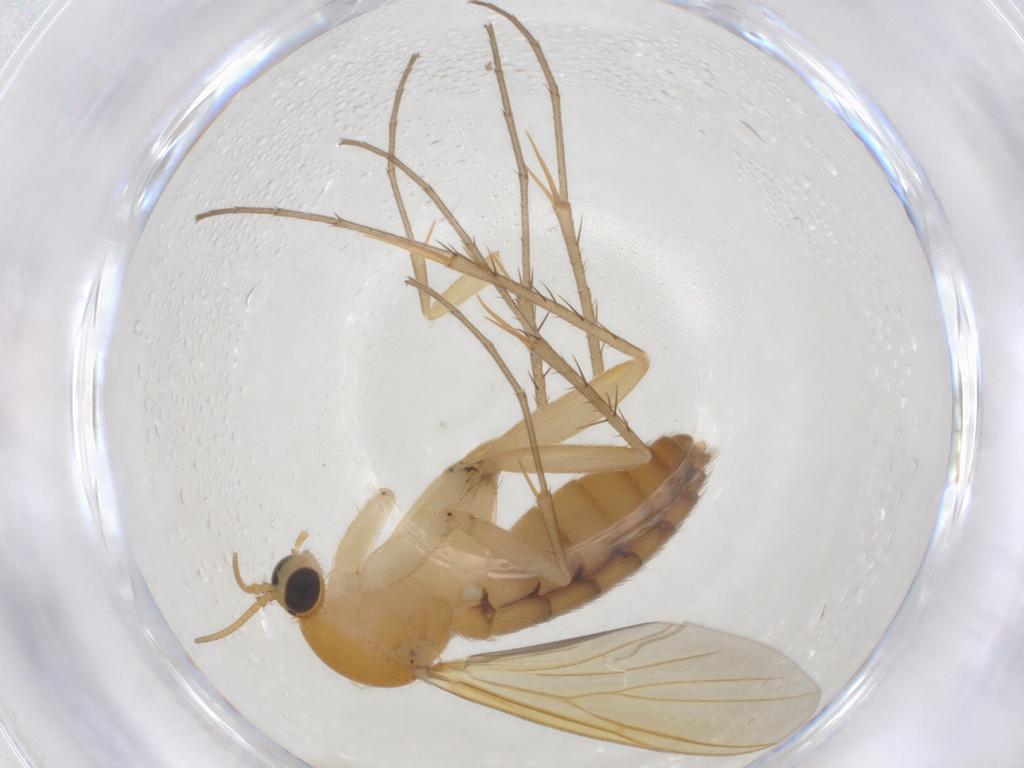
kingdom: Animalia
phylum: Arthropoda
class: Insecta
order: Diptera
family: Mycetophilidae
